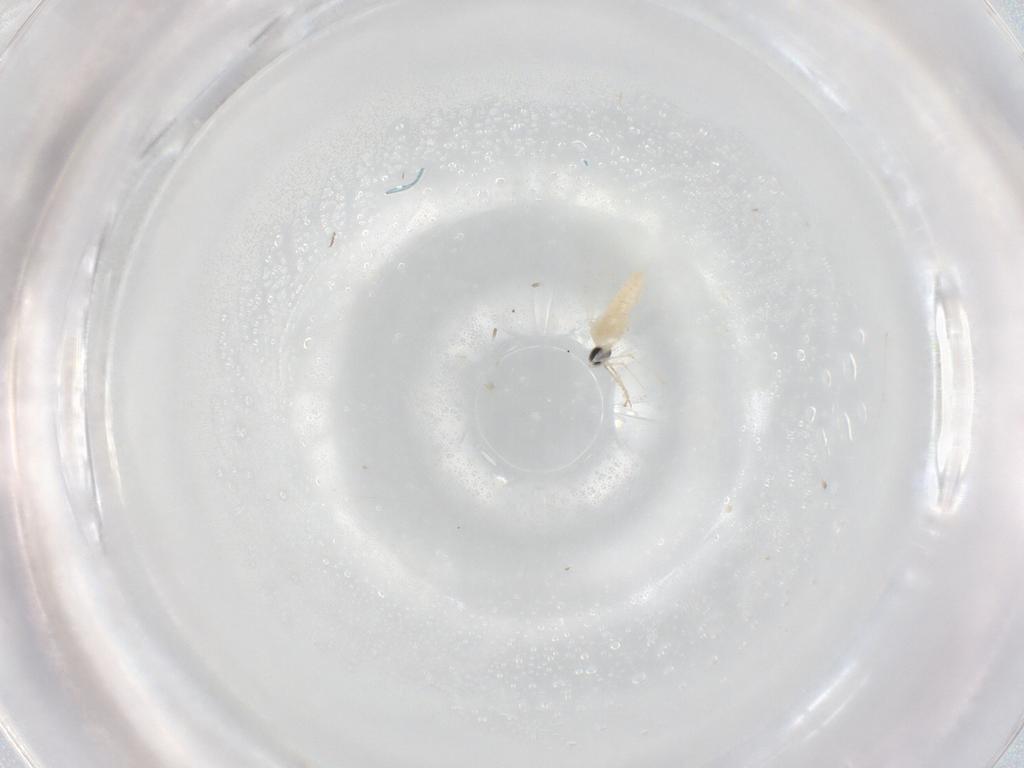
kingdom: Animalia
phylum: Arthropoda
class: Insecta
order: Diptera
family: Cecidomyiidae
